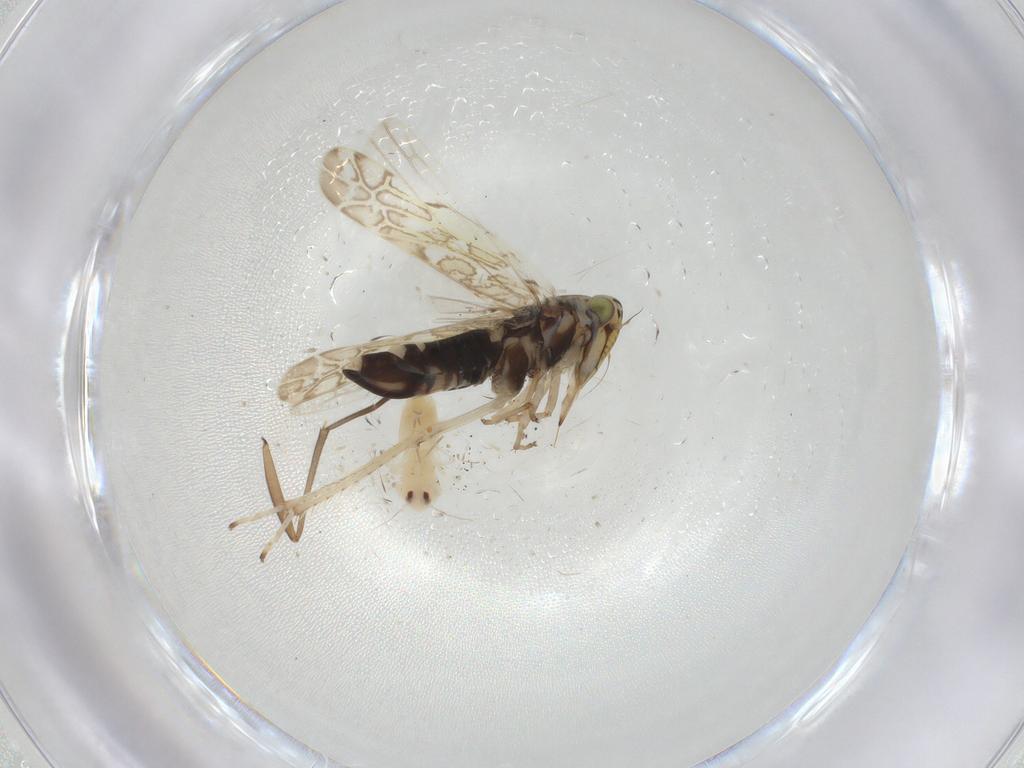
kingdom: Animalia
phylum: Arthropoda
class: Insecta
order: Hemiptera
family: Cicadellidae
